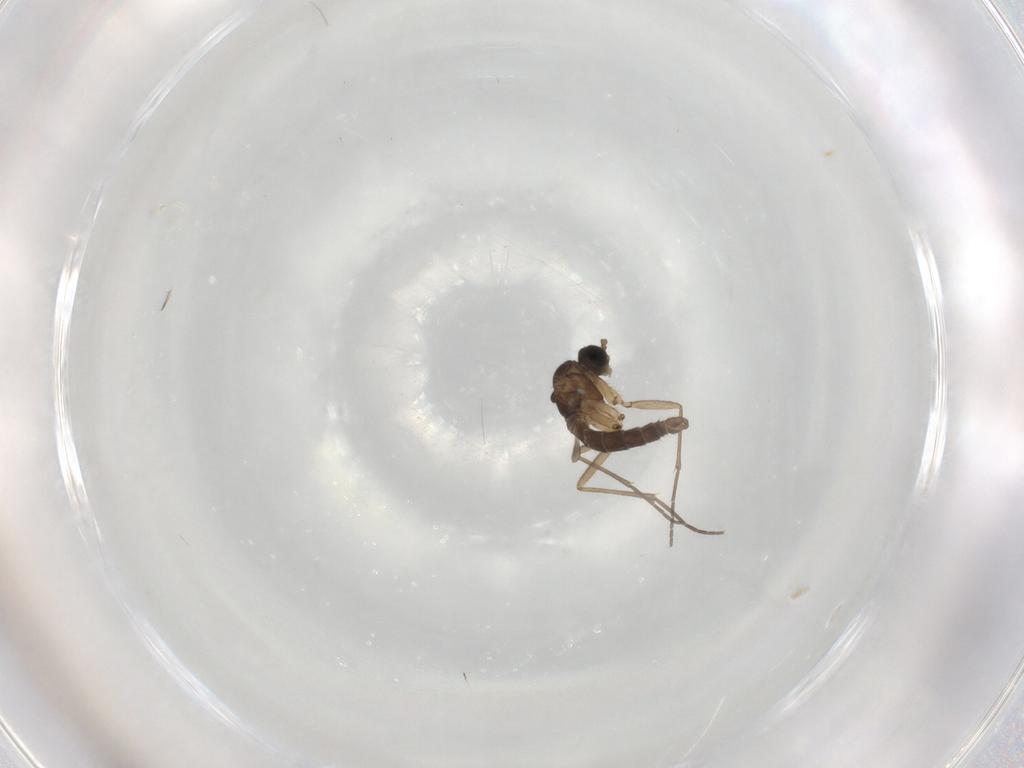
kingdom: Animalia
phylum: Arthropoda
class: Insecta
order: Diptera
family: Sciaridae
